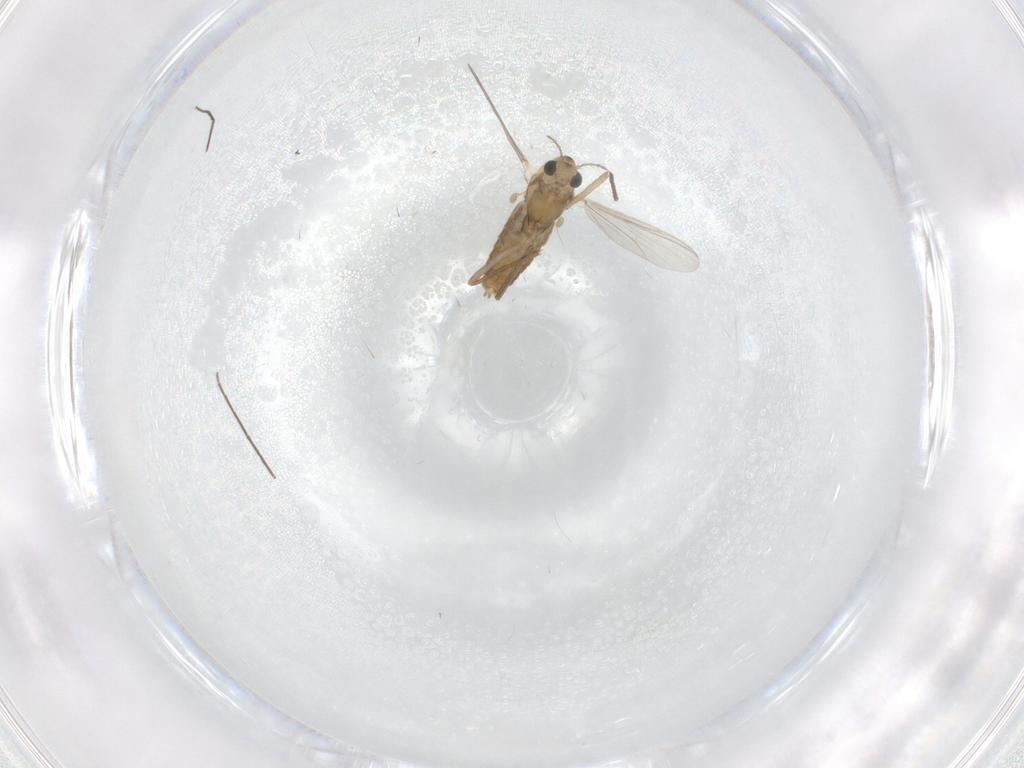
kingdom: Animalia
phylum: Arthropoda
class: Insecta
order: Diptera
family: Chironomidae
